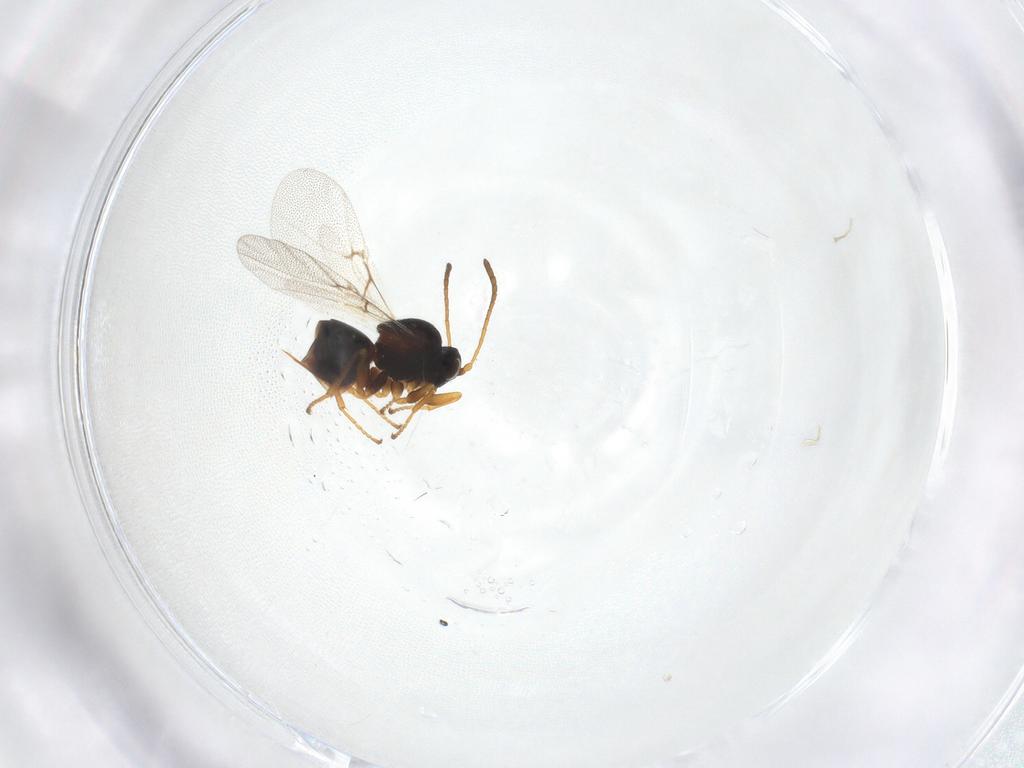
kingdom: Animalia
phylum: Arthropoda
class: Insecta
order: Hymenoptera
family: Cynipidae
